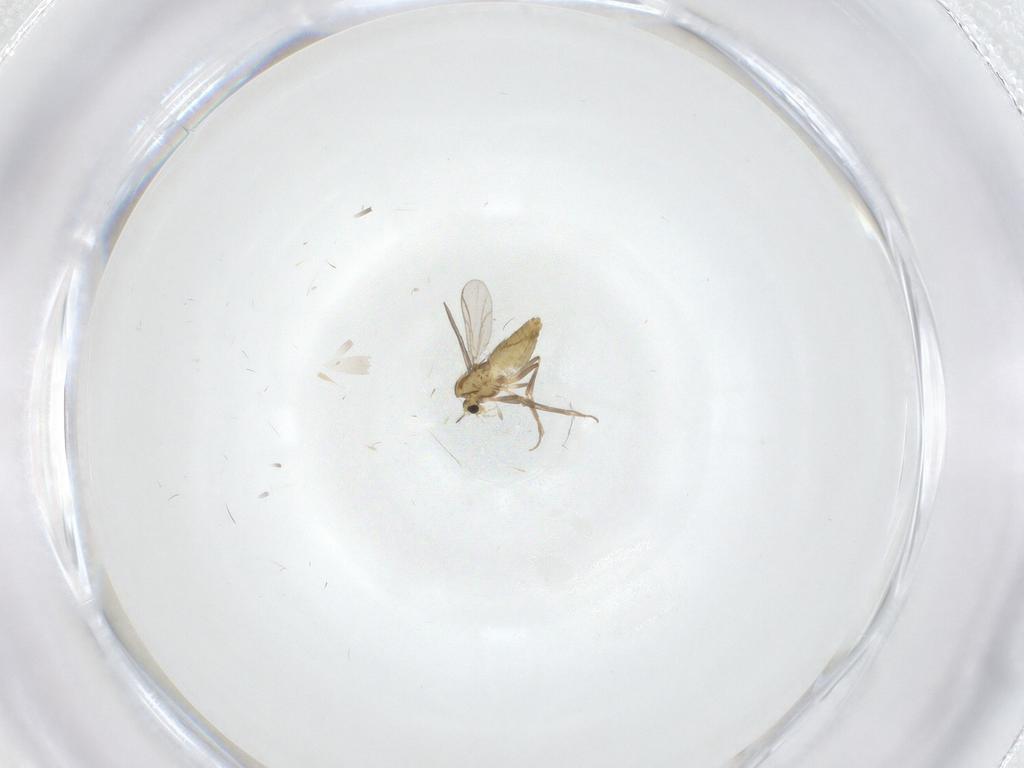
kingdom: Animalia
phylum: Arthropoda
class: Insecta
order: Diptera
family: Chironomidae
